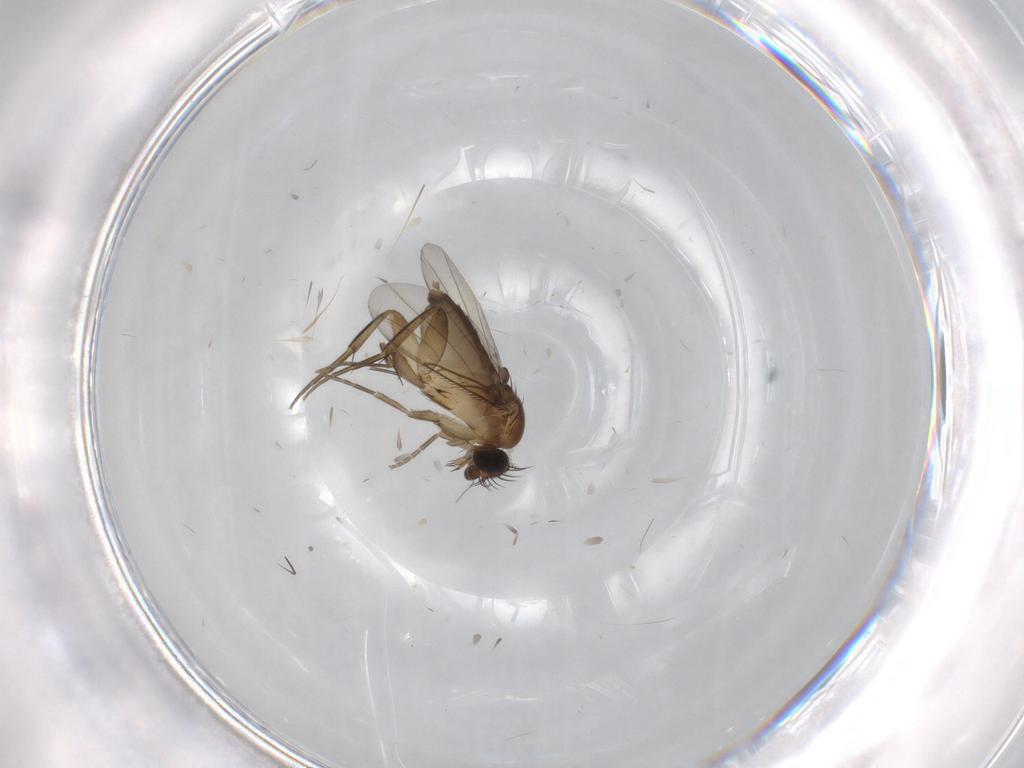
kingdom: Animalia
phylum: Arthropoda
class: Insecta
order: Diptera
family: Phoridae
